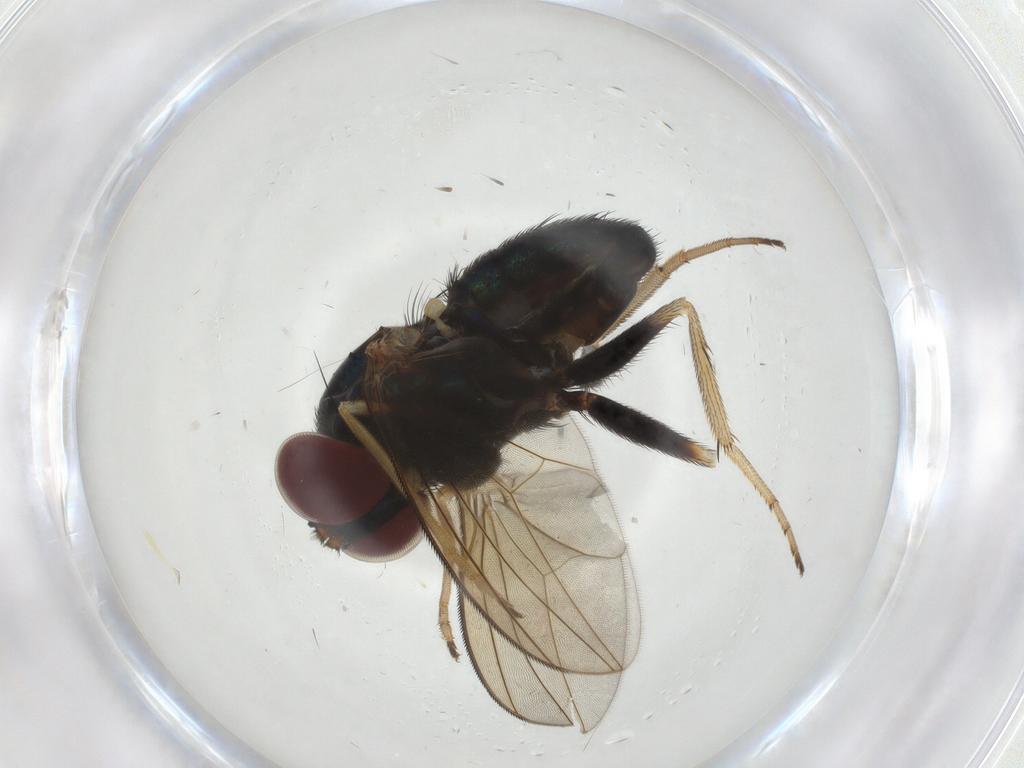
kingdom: Animalia
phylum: Arthropoda
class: Insecta
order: Diptera
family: Dolichopodidae
